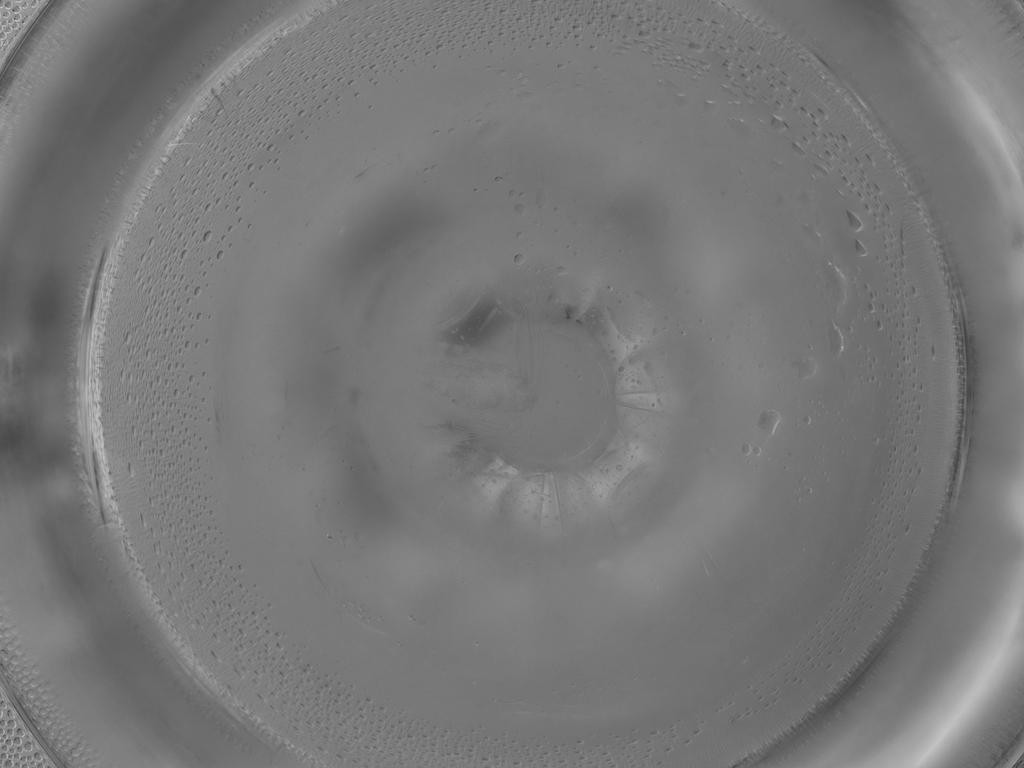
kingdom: Animalia
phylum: Arthropoda
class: Insecta
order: Diptera
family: Cecidomyiidae
